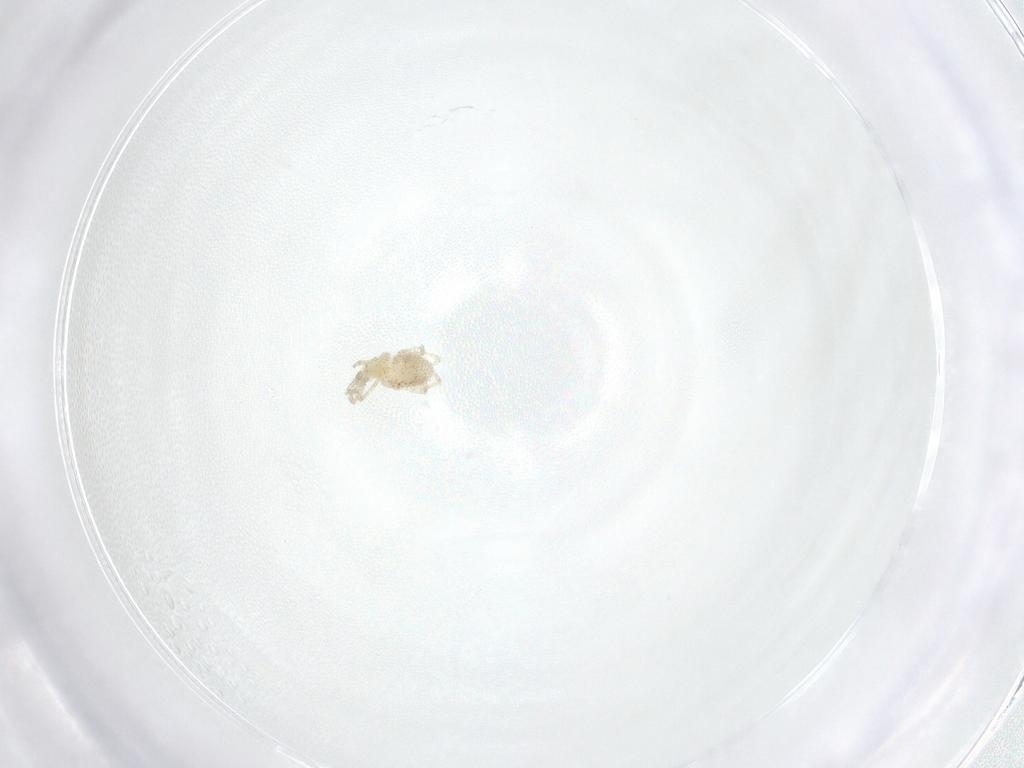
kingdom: Animalia
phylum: Arthropoda
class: Arachnida
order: Trombidiformes
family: Smarididae
